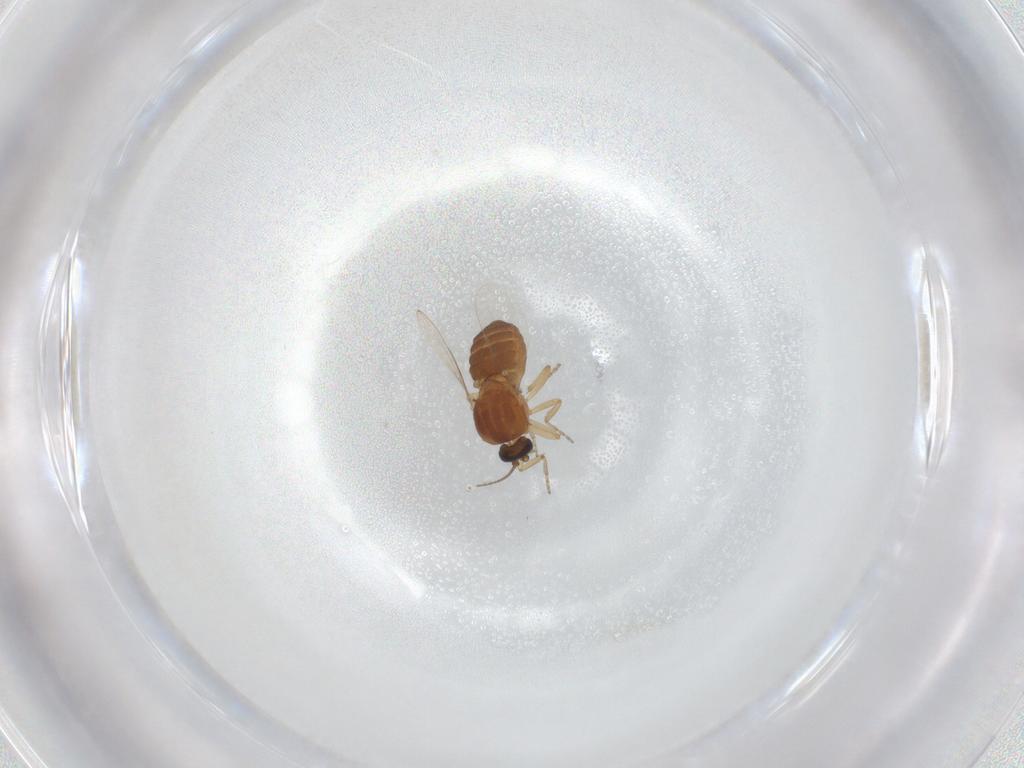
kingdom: Animalia
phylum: Arthropoda
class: Insecta
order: Diptera
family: Ceratopogonidae
